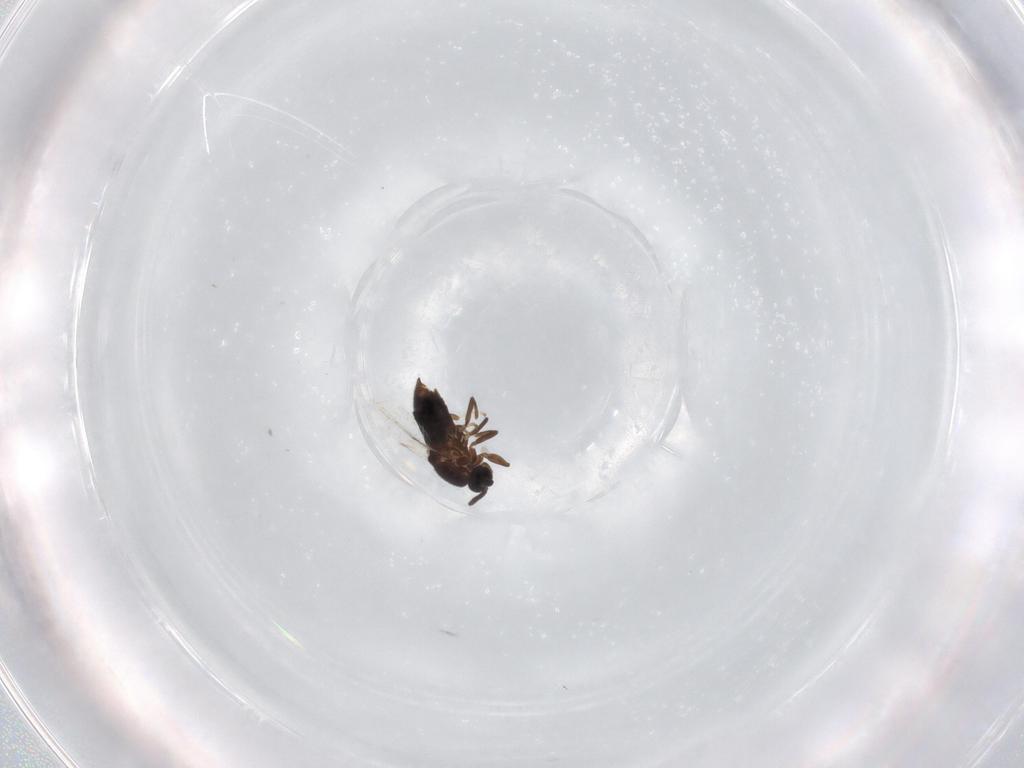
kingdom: Animalia
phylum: Arthropoda
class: Insecta
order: Diptera
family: Scatopsidae
